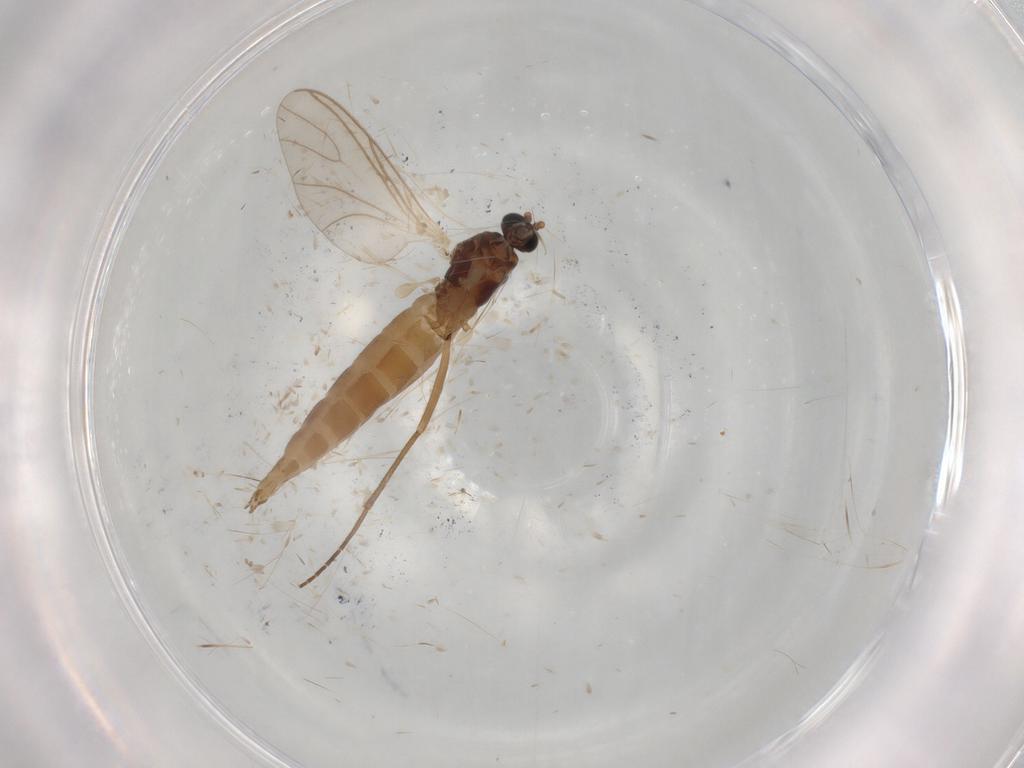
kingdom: Animalia
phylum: Arthropoda
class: Insecta
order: Diptera
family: Sciaridae
